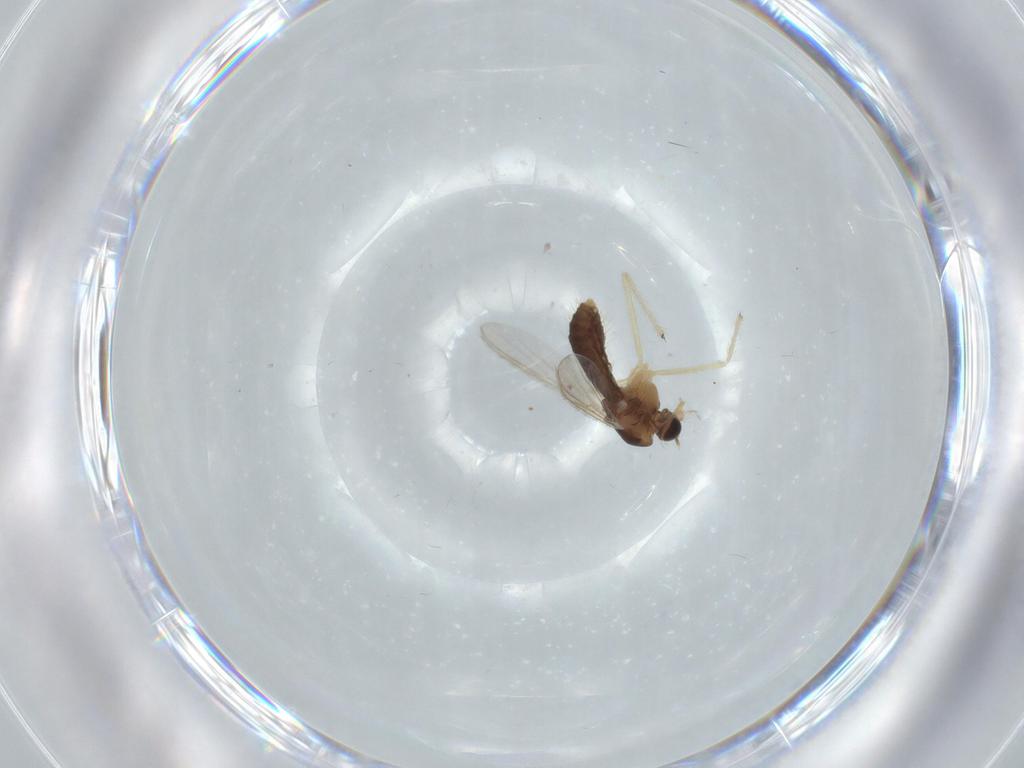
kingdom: Animalia
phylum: Arthropoda
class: Insecta
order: Diptera
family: Chironomidae
